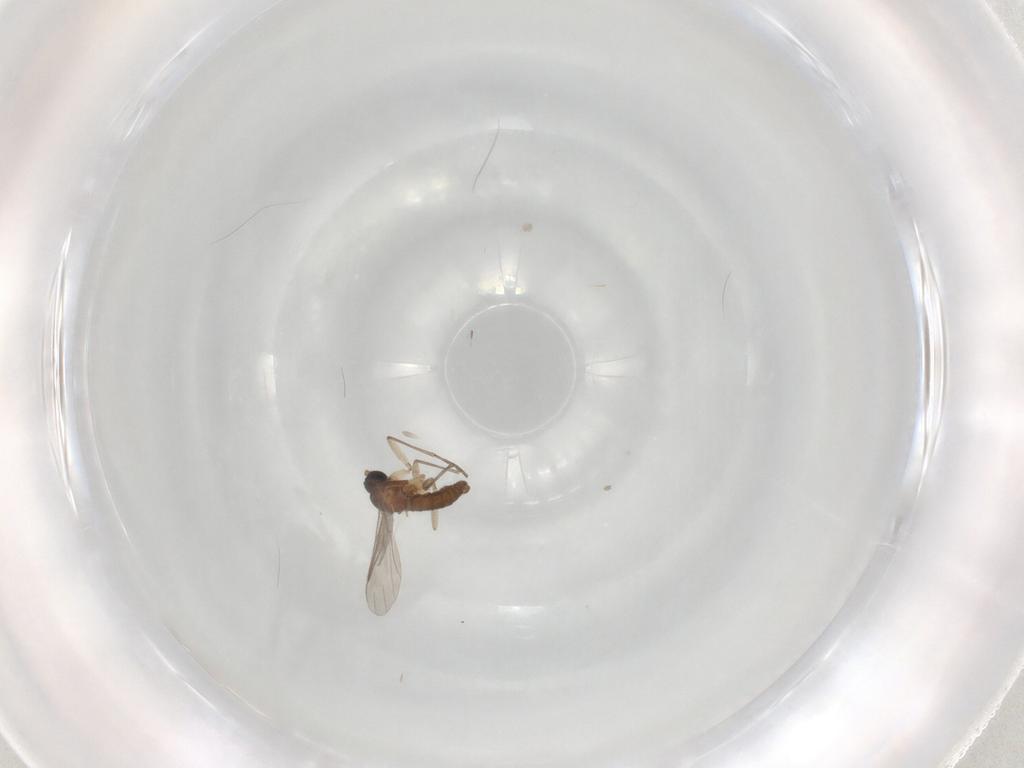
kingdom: Animalia
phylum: Arthropoda
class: Insecta
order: Diptera
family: Sciaridae
